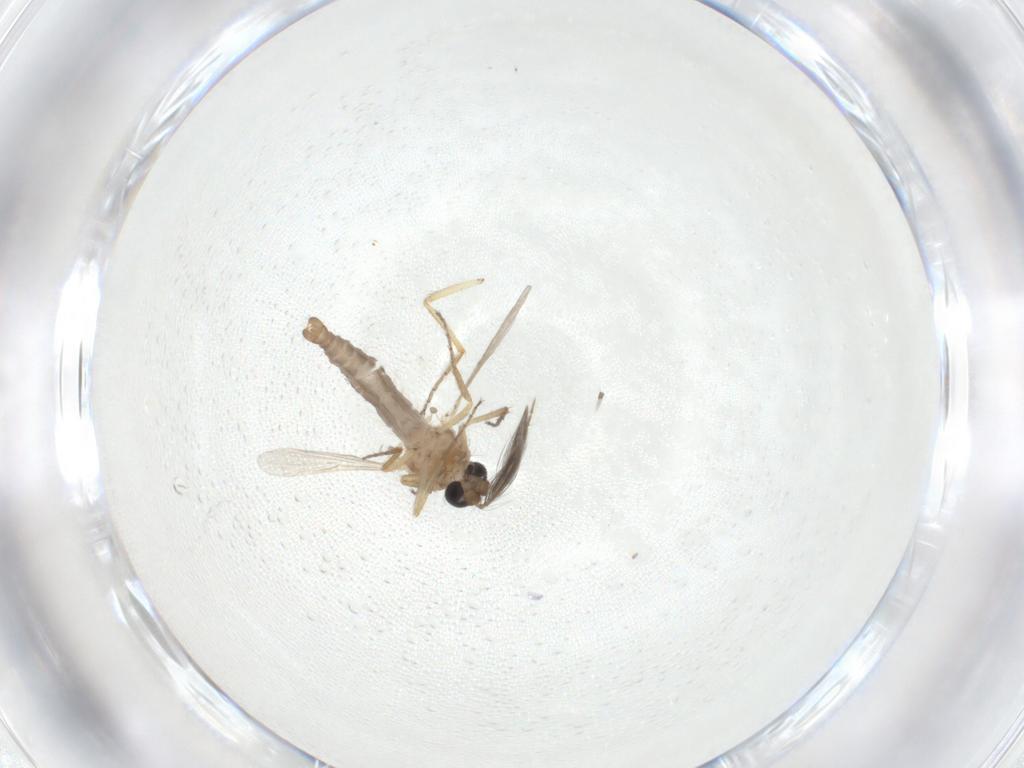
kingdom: Animalia
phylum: Arthropoda
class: Insecta
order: Diptera
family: Ceratopogonidae
